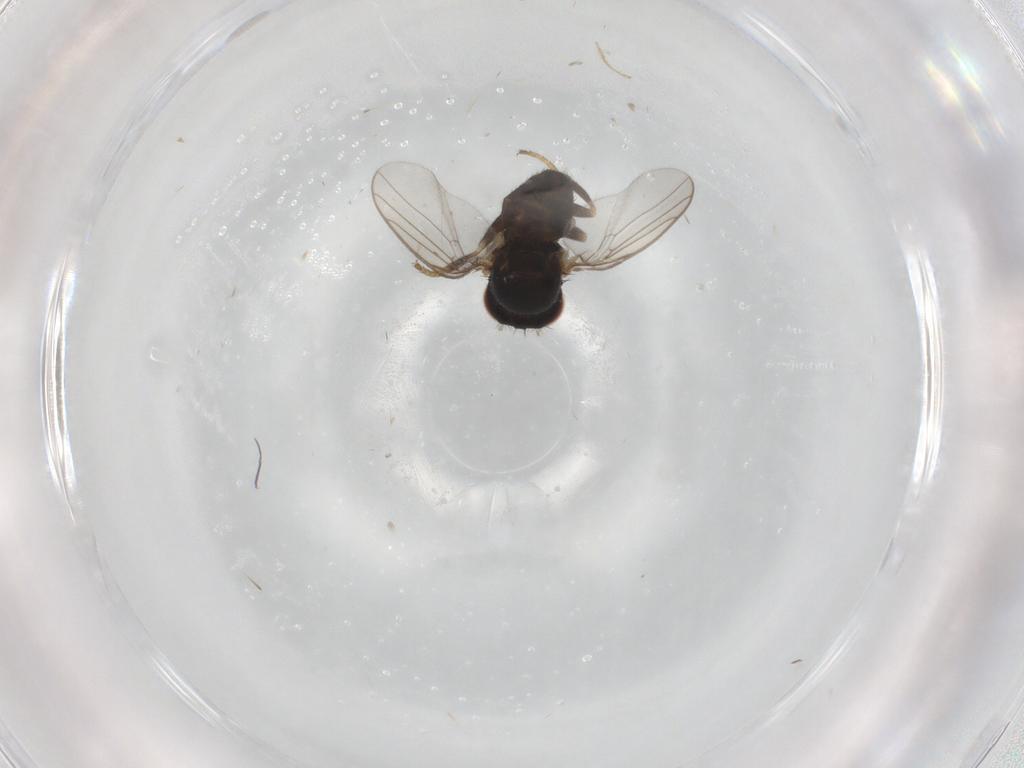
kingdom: Animalia
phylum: Arthropoda
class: Insecta
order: Diptera
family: Chloropidae
